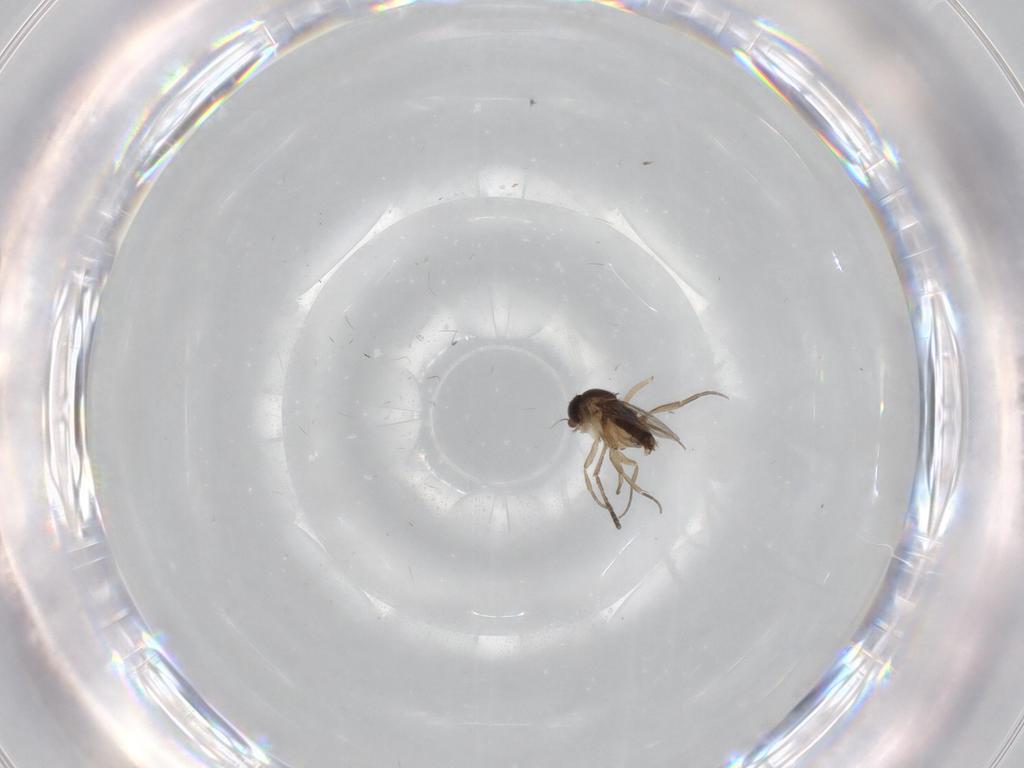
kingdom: Animalia
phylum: Arthropoda
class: Insecta
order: Diptera
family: Psychodidae
